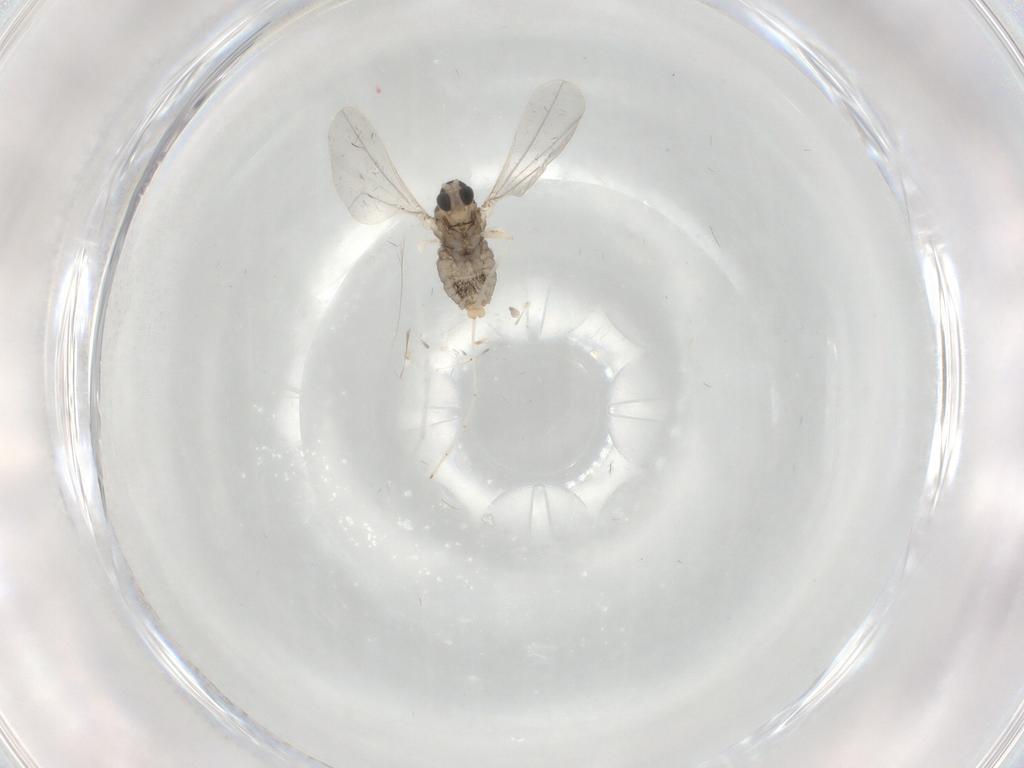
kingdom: Animalia
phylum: Arthropoda
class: Insecta
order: Diptera
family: Cecidomyiidae
